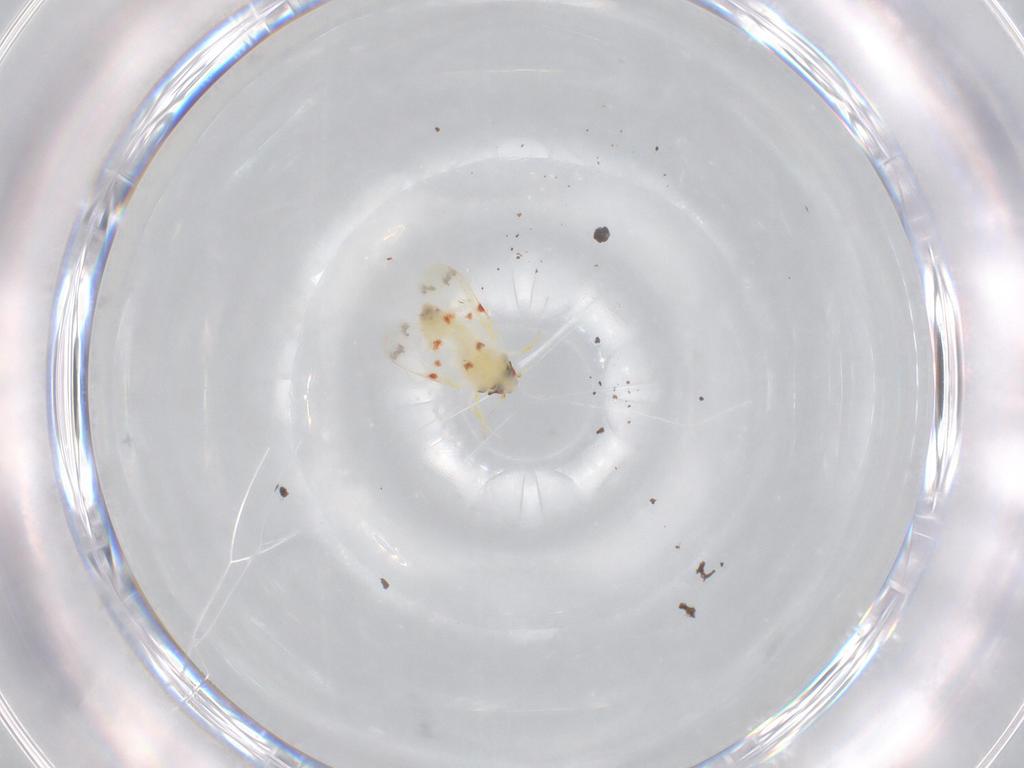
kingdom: Animalia
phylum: Arthropoda
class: Insecta
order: Hemiptera
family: Aleyrodidae
